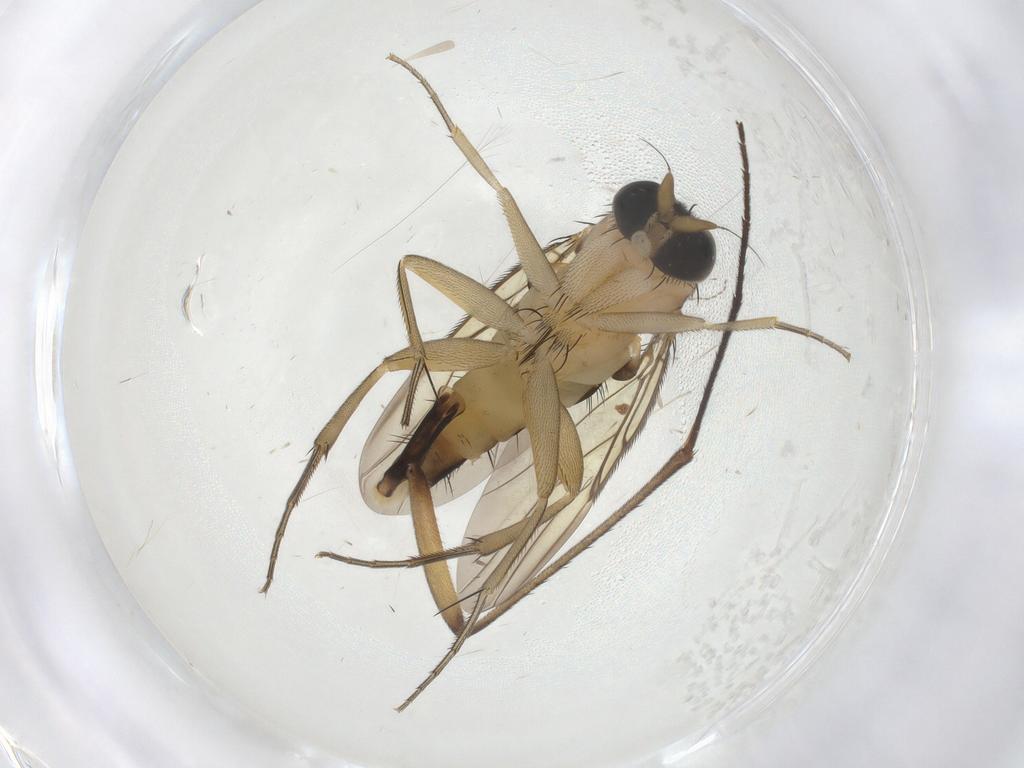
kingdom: Animalia
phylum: Arthropoda
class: Insecta
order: Diptera
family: Cecidomyiidae
